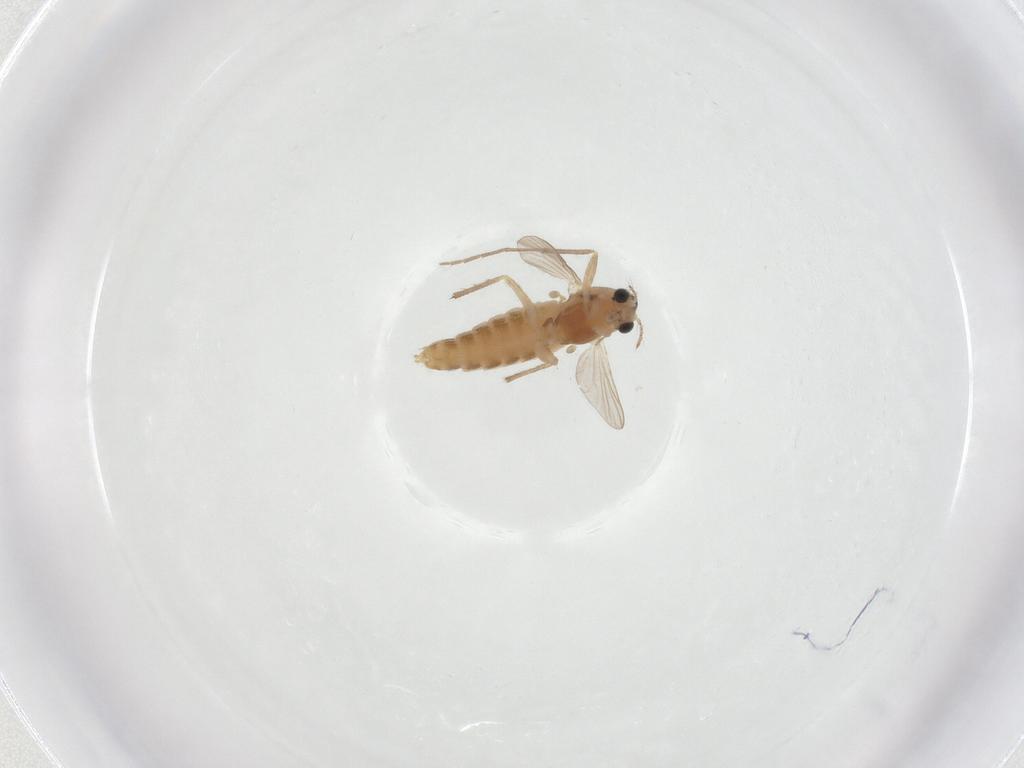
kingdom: Animalia
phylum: Arthropoda
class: Insecta
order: Diptera
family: Chironomidae
